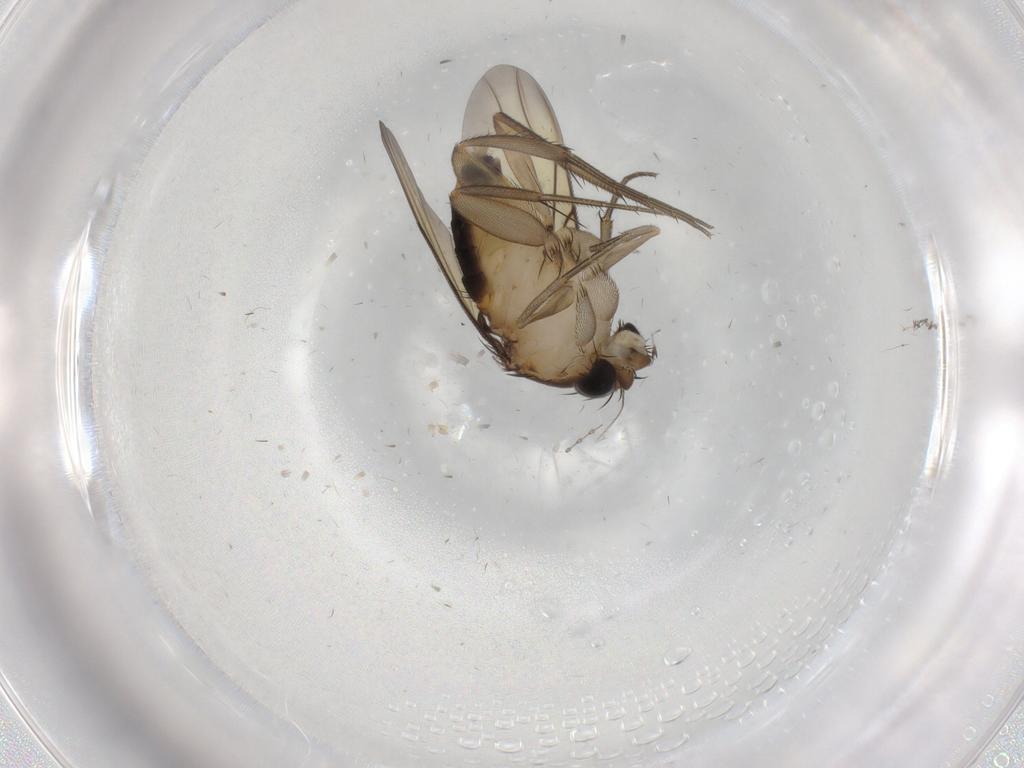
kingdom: Animalia
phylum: Arthropoda
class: Insecta
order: Diptera
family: Cecidomyiidae
